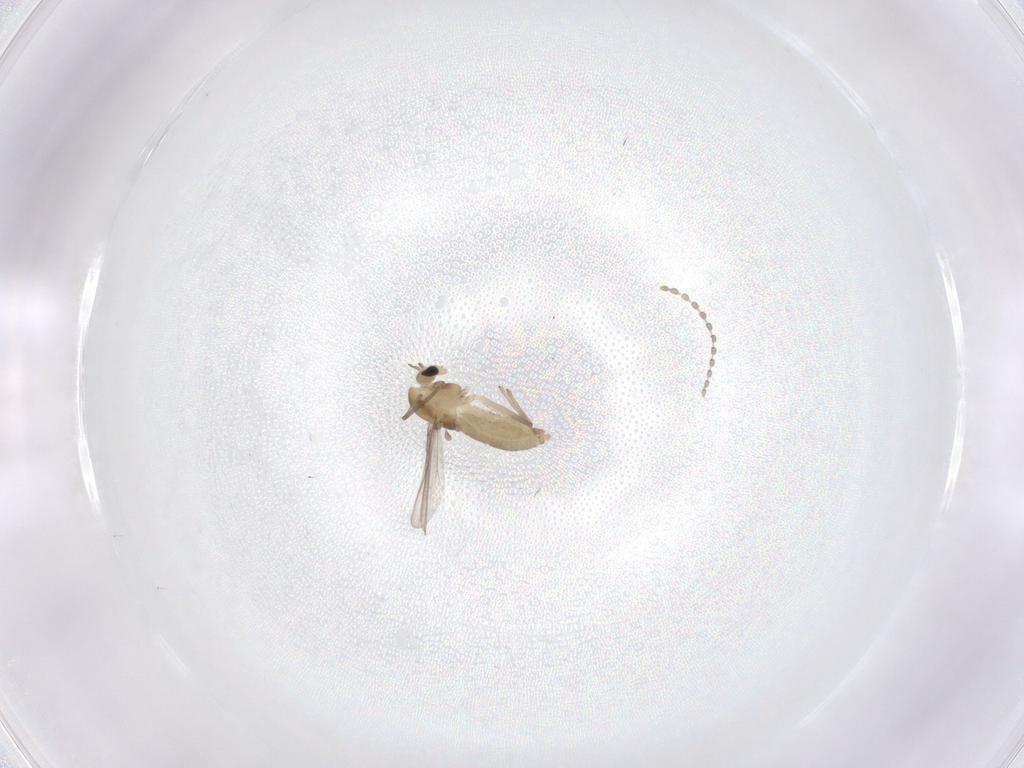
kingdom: Animalia
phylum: Arthropoda
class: Insecta
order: Diptera
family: Chironomidae
